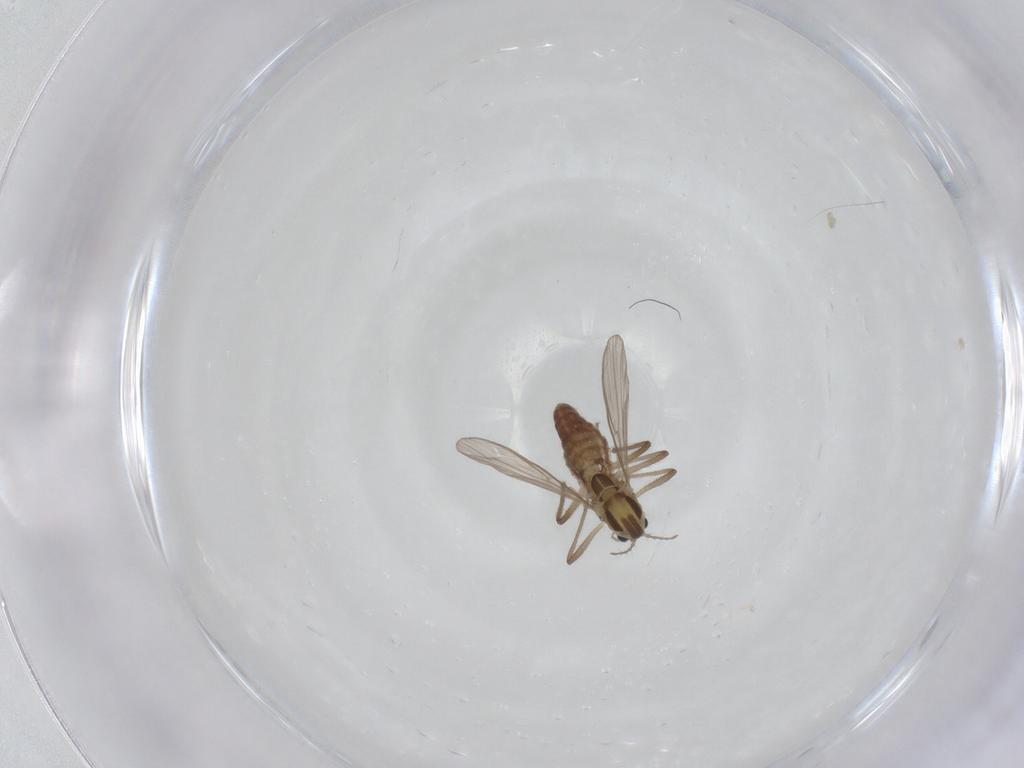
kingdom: Animalia
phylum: Arthropoda
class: Insecta
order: Diptera
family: Chironomidae
